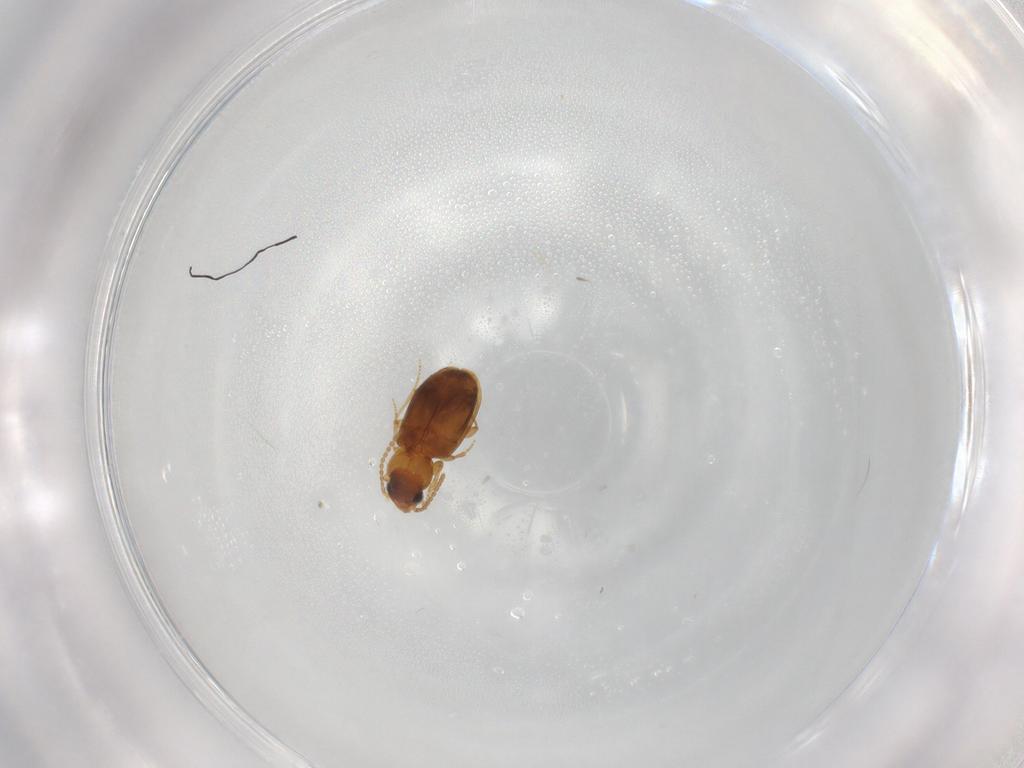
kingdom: Animalia
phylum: Arthropoda
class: Insecta
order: Coleoptera
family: Carabidae
